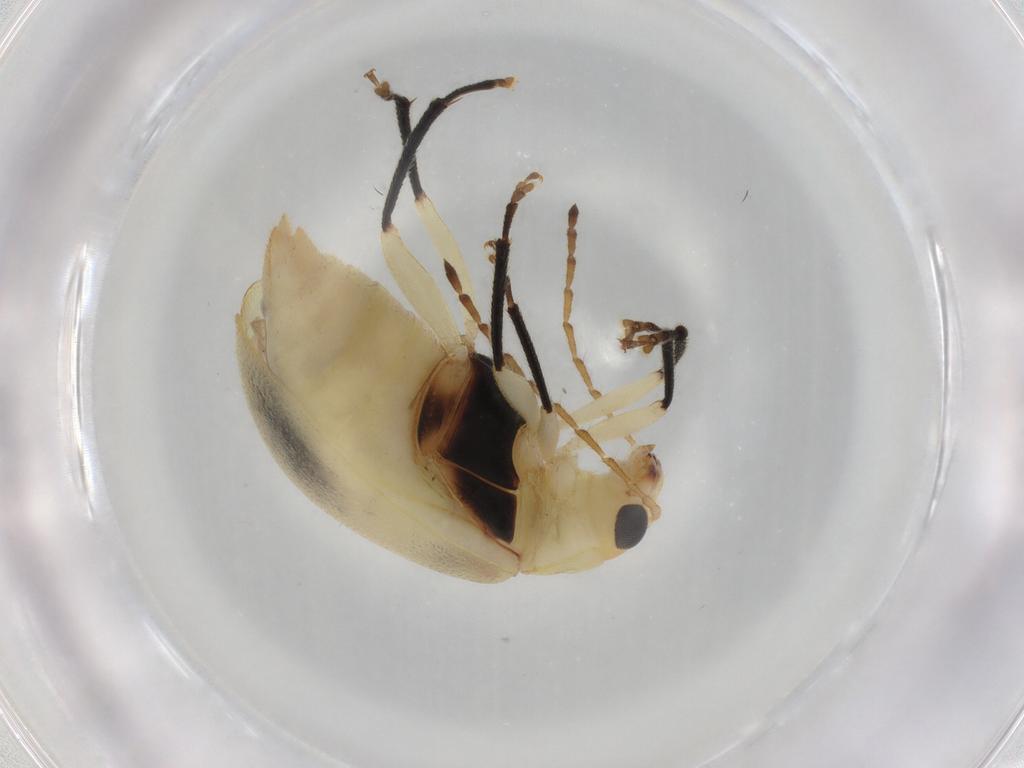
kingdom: Animalia
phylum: Arthropoda
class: Insecta
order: Coleoptera
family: Chrysomelidae
